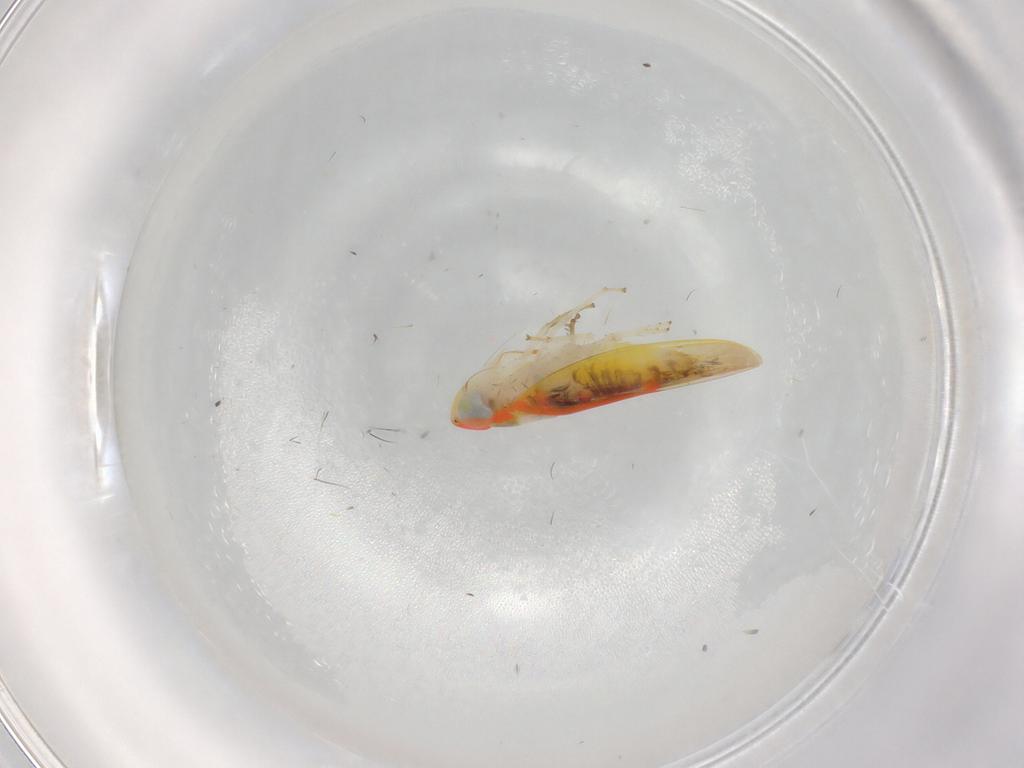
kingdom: Animalia
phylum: Arthropoda
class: Insecta
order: Hemiptera
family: Cicadellidae
